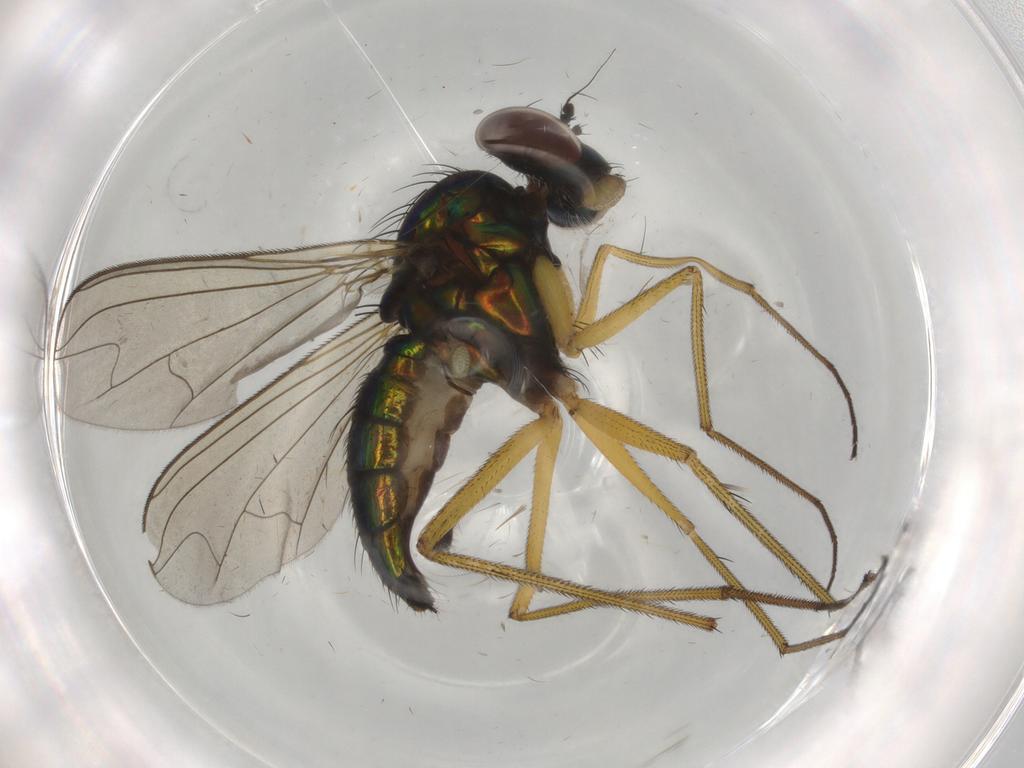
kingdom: Animalia
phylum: Arthropoda
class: Insecta
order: Diptera
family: Dolichopodidae
